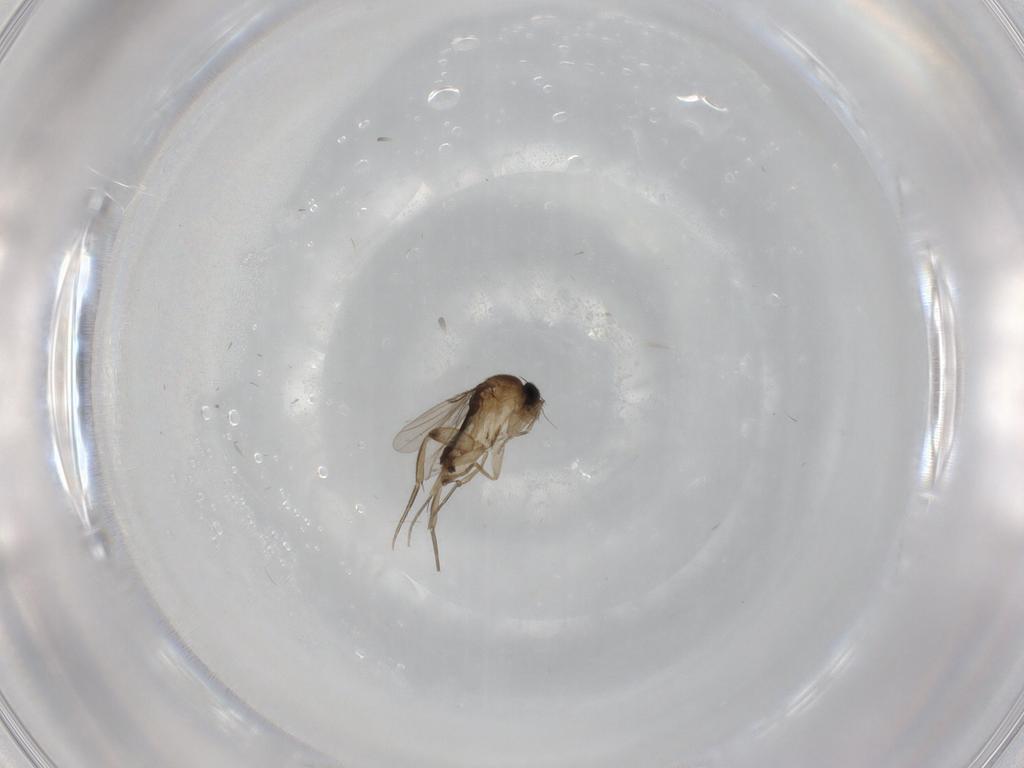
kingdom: Animalia
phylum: Arthropoda
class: Insecta
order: Diptera
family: Phoridae
